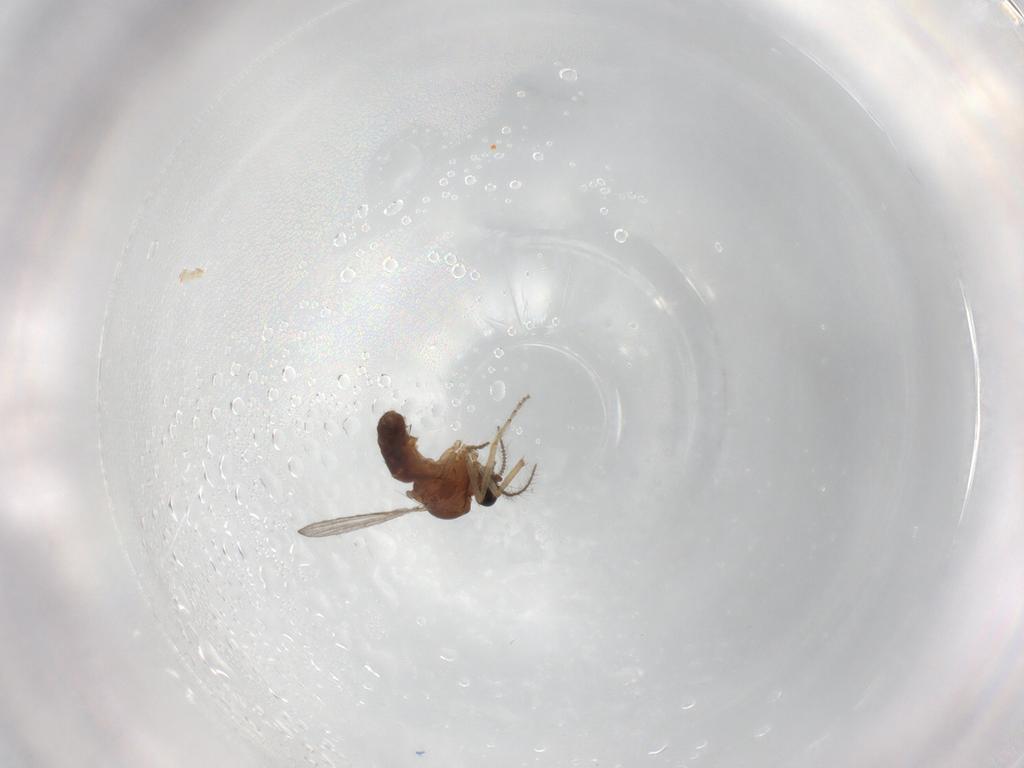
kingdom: Animalia
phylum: Arthropoda
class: Insecta
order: Diptera
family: Ceratopogonidae
